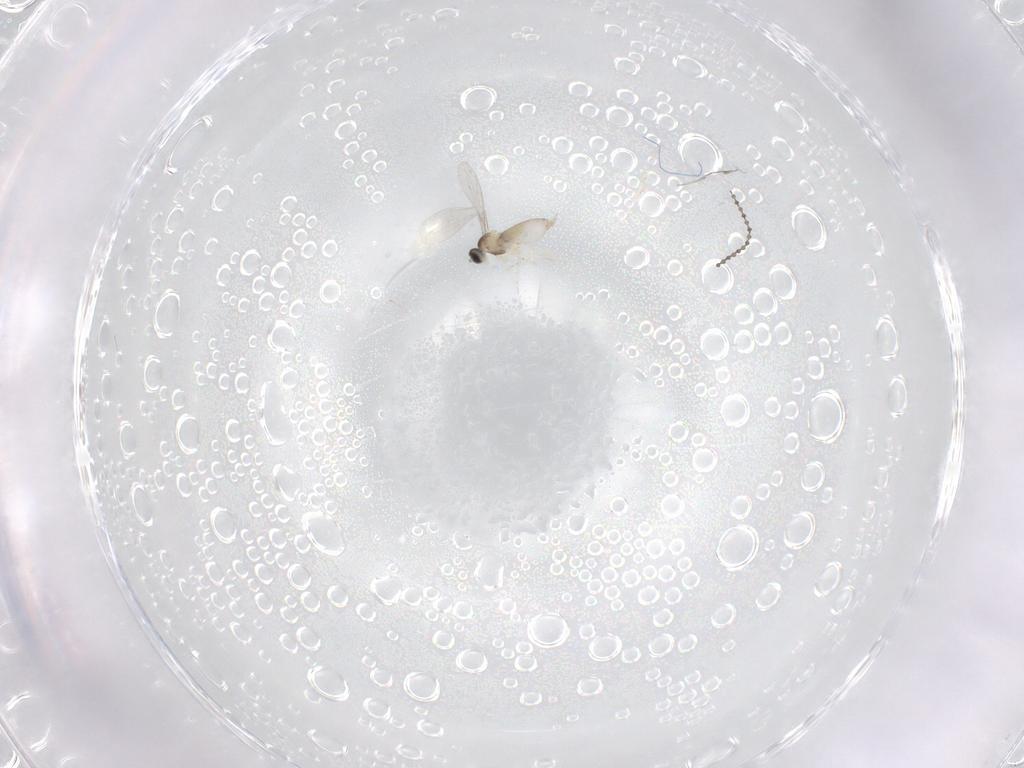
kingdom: Animalia
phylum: Arthropoda
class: Insecta
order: Diptera
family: Cecidomyiidae
